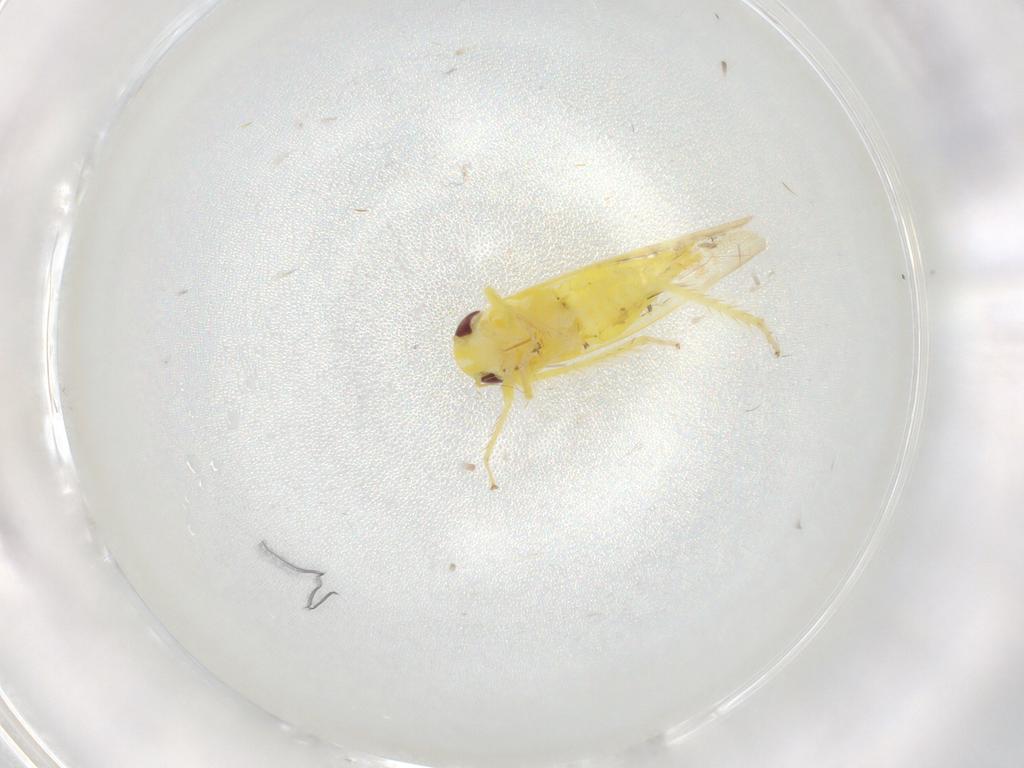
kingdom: Animalia
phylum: Arthropoda
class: Insecta
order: Hemiptera
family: Cicadellidae
